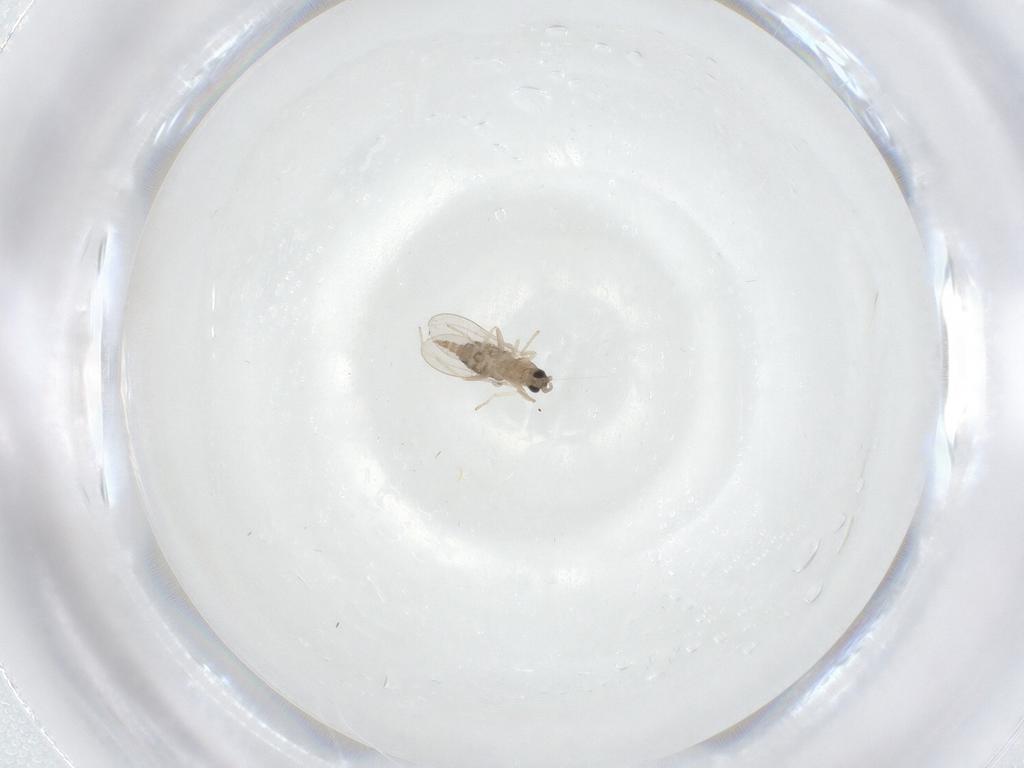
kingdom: Animalia
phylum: Arthropoda
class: Insecta
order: Diptera
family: Cecidomyiidae
